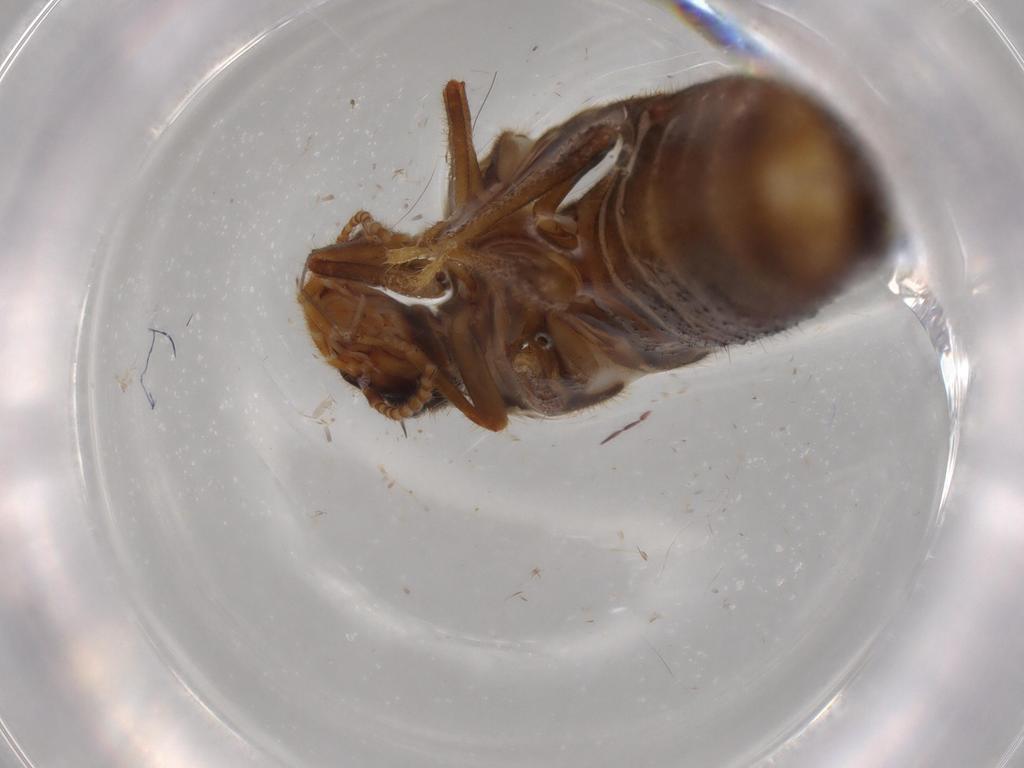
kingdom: Animalia
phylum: Arthropoda
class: Insecta
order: Blattodea
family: Termitidae
